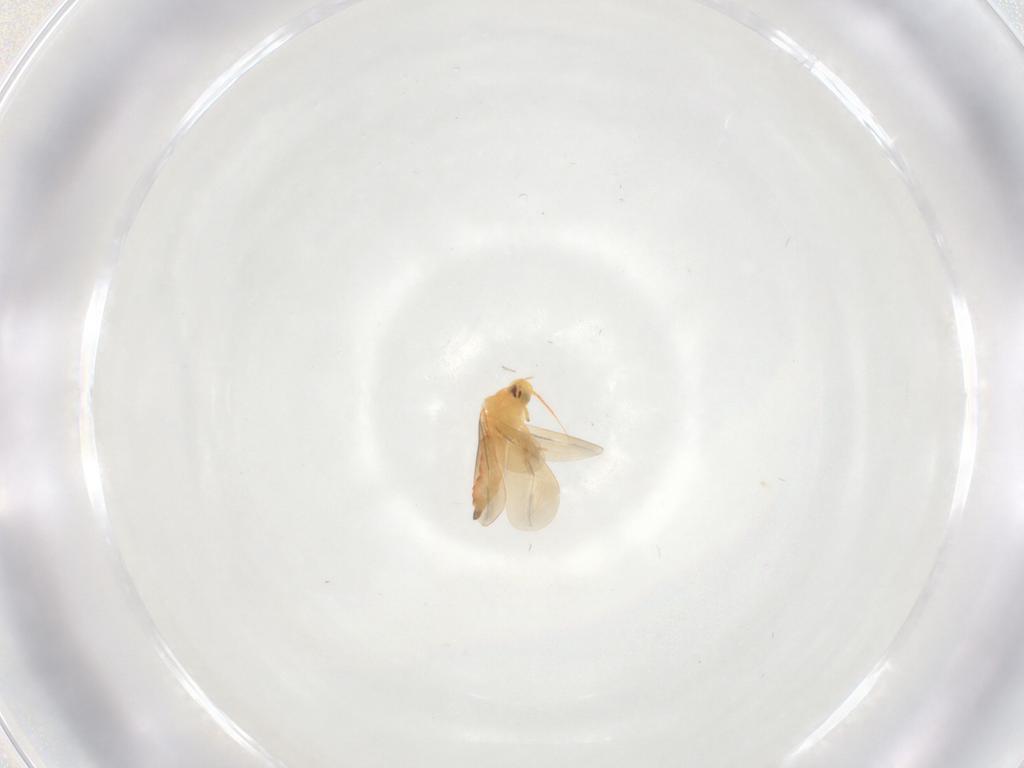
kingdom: Animalia
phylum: Arthropoda
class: Insecta
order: Hemiptera
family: Aleyrodidae
